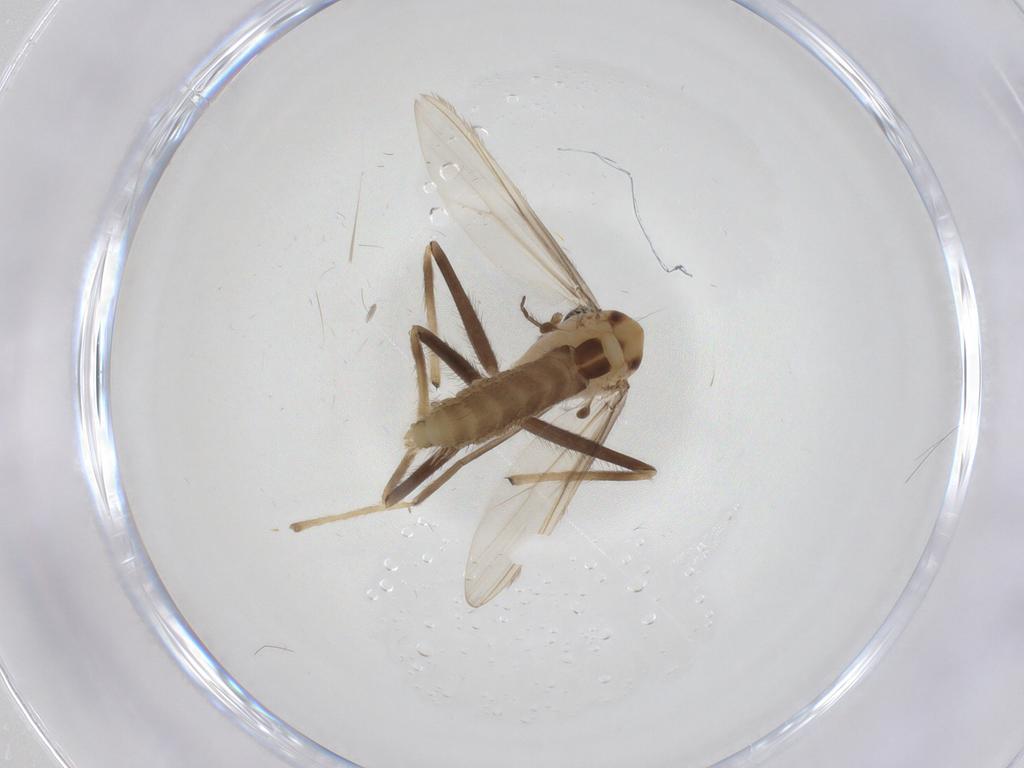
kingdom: Animalia
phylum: Arthropoda
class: Insecta
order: Diptera
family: Chironomidae
